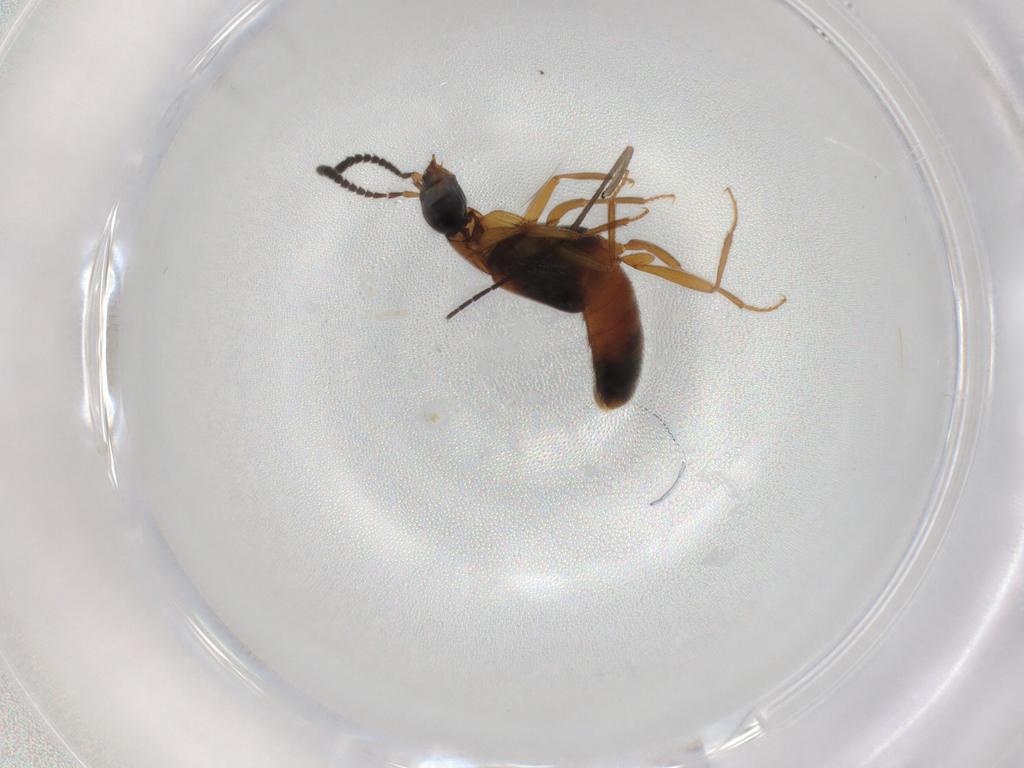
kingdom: Animalia
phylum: Arthropoda
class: Insecta
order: Coleoptera
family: Staphylinidae
